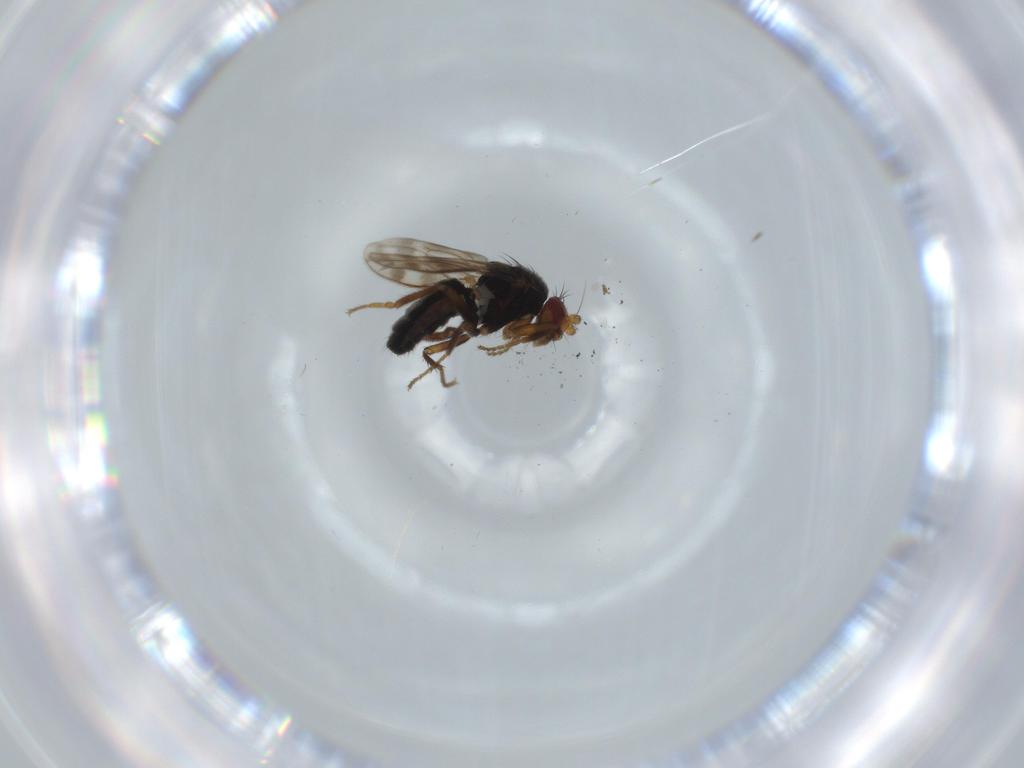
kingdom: Animalia
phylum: Arthropoda
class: Insecta
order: Diptera
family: Sphaeroceridae
